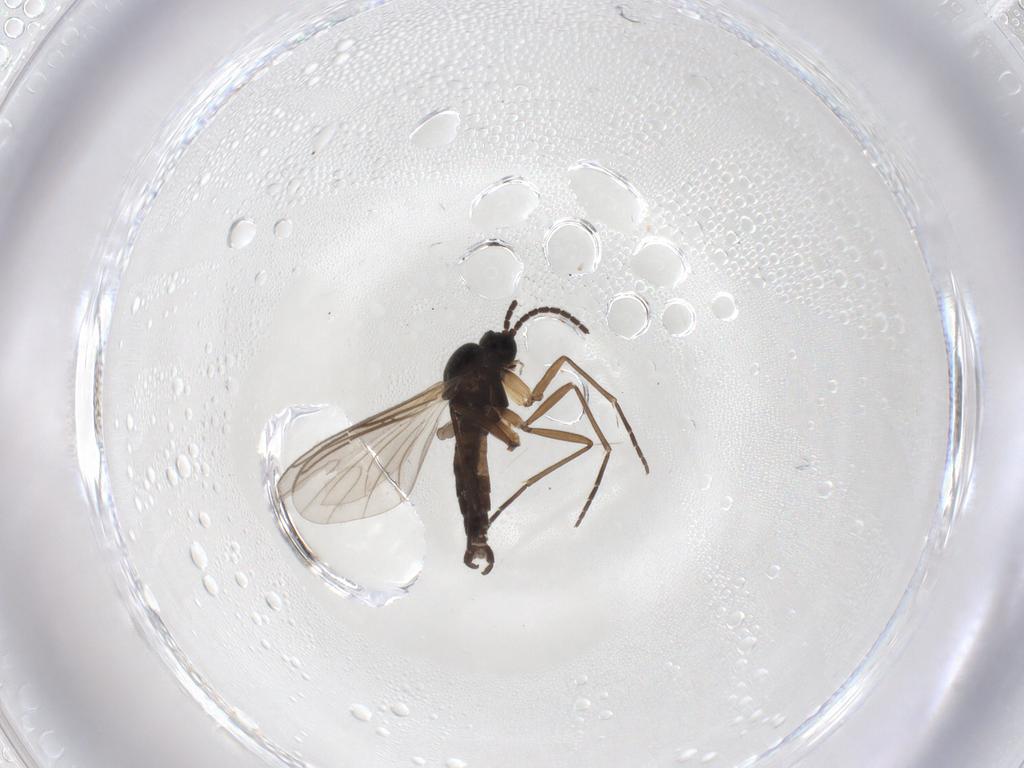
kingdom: Animalia
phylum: Arthropoda
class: Insecta
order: Diptera
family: Sciaridae
